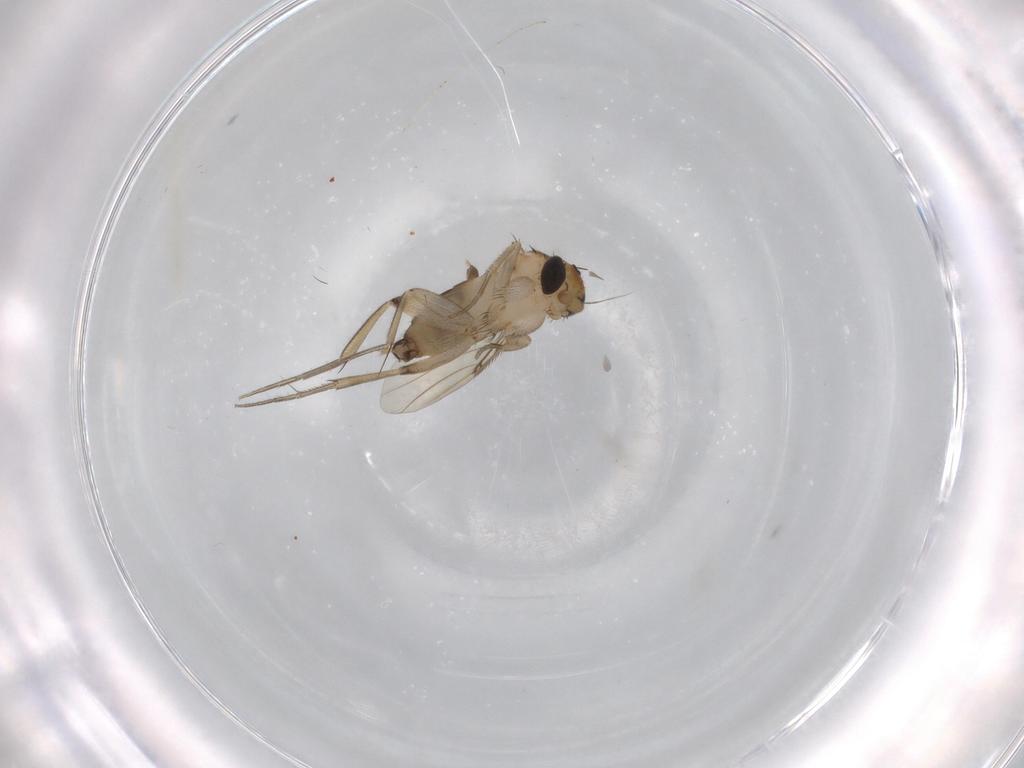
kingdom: Animalia
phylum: Arthropoda
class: Insecta
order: Diptera
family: Phoridae
